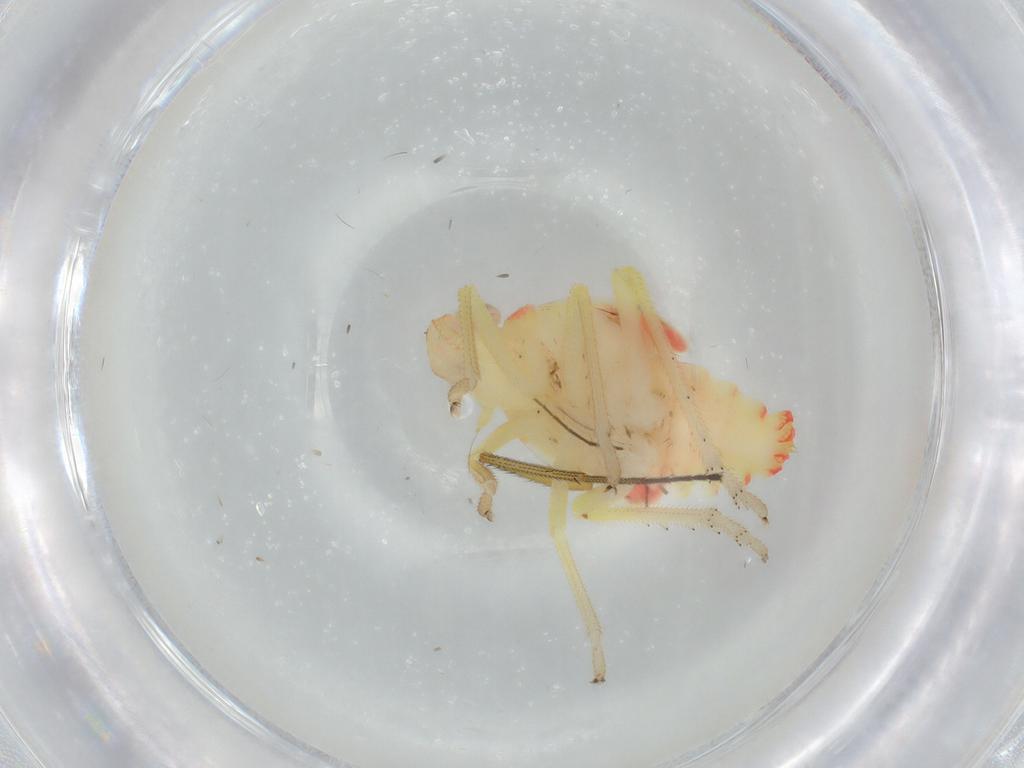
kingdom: Animalia
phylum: Arthropoda
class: Insecta
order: Hemiptera
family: Tropiduchidae
